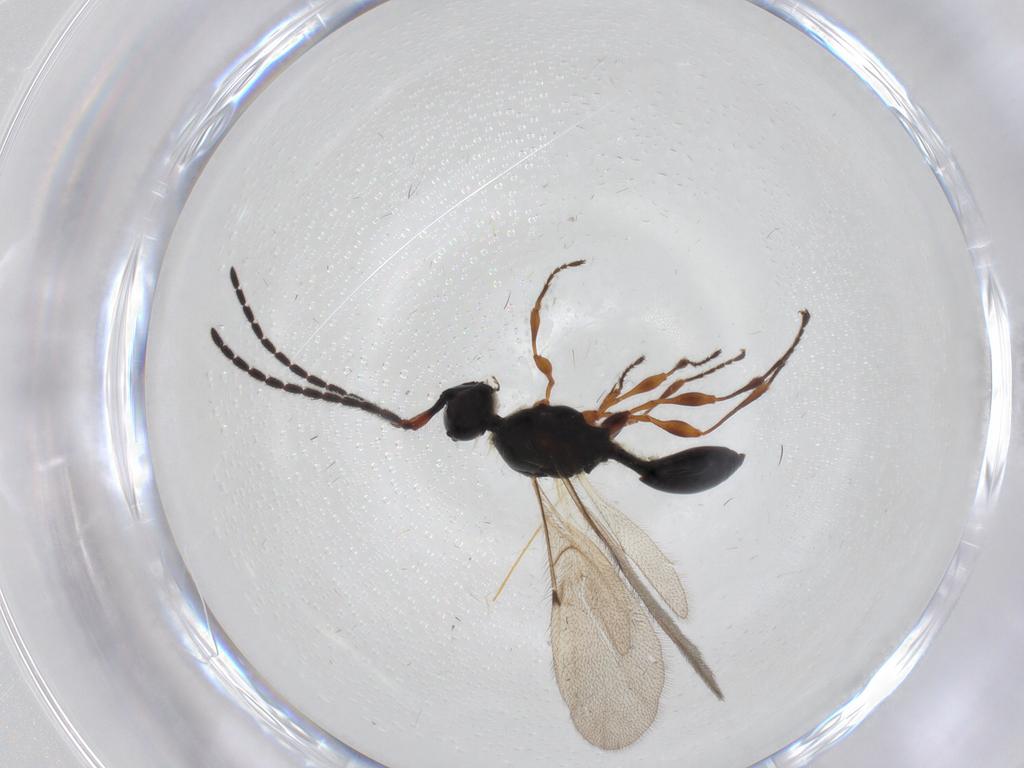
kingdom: Animalia
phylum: Arthropoda
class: Insecta
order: Hymenoptera
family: Diapriidae
